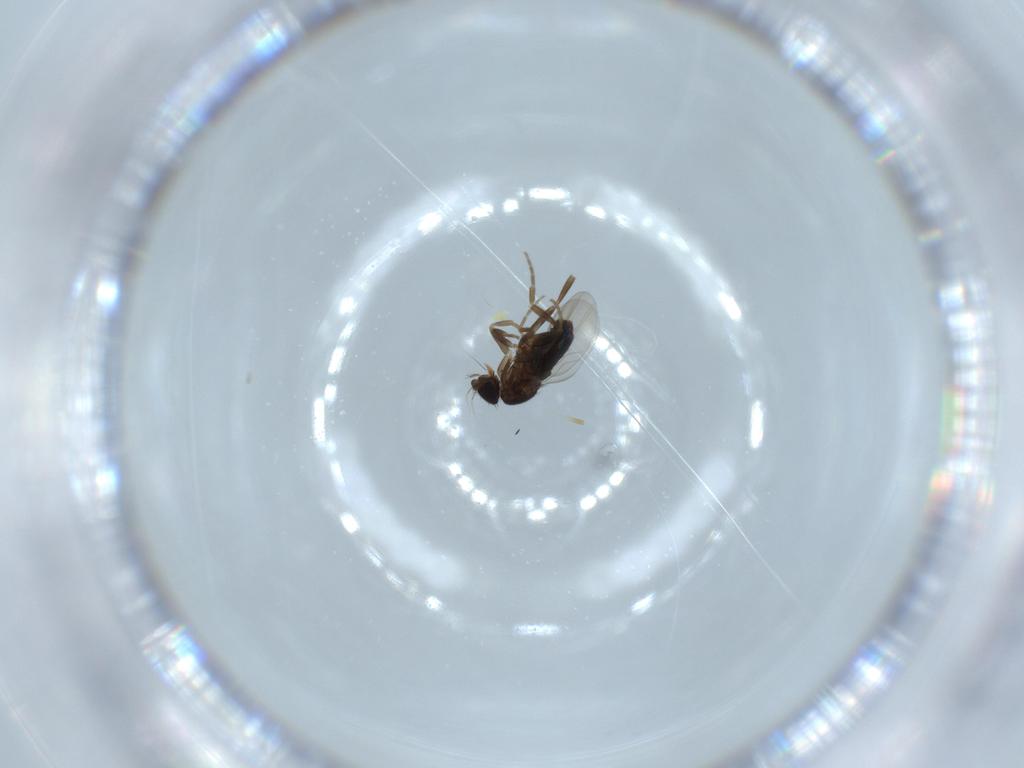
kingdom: Animalia
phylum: Arthropoda
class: Insecta
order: Diptera
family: Phoridae
